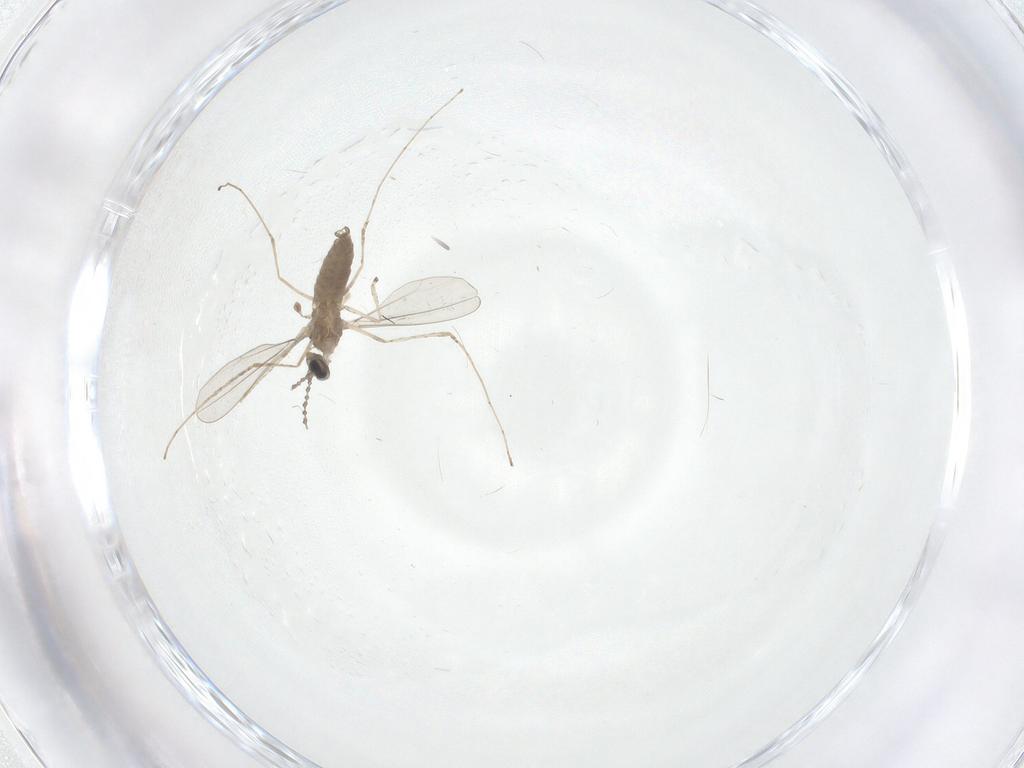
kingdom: Animalia
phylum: Arthropoda
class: Insecta
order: Diptera
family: Cecidomyiidae
